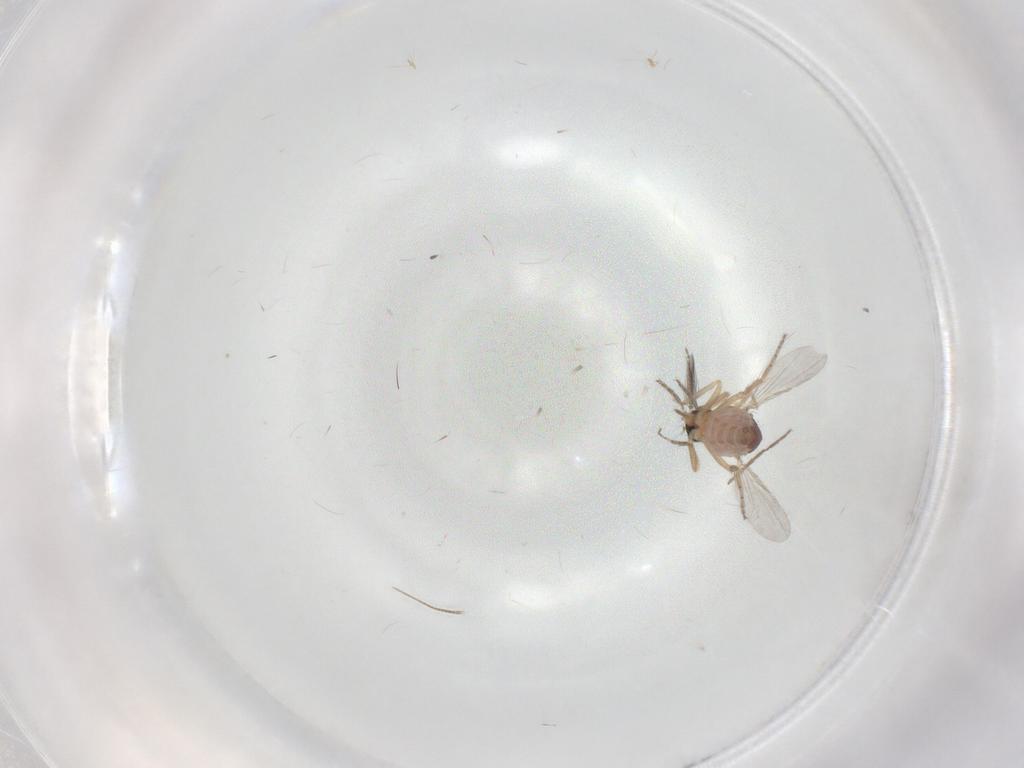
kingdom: Animalia
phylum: Arthropoda
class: Insecta
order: Diptera
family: Ceratopogonidae
